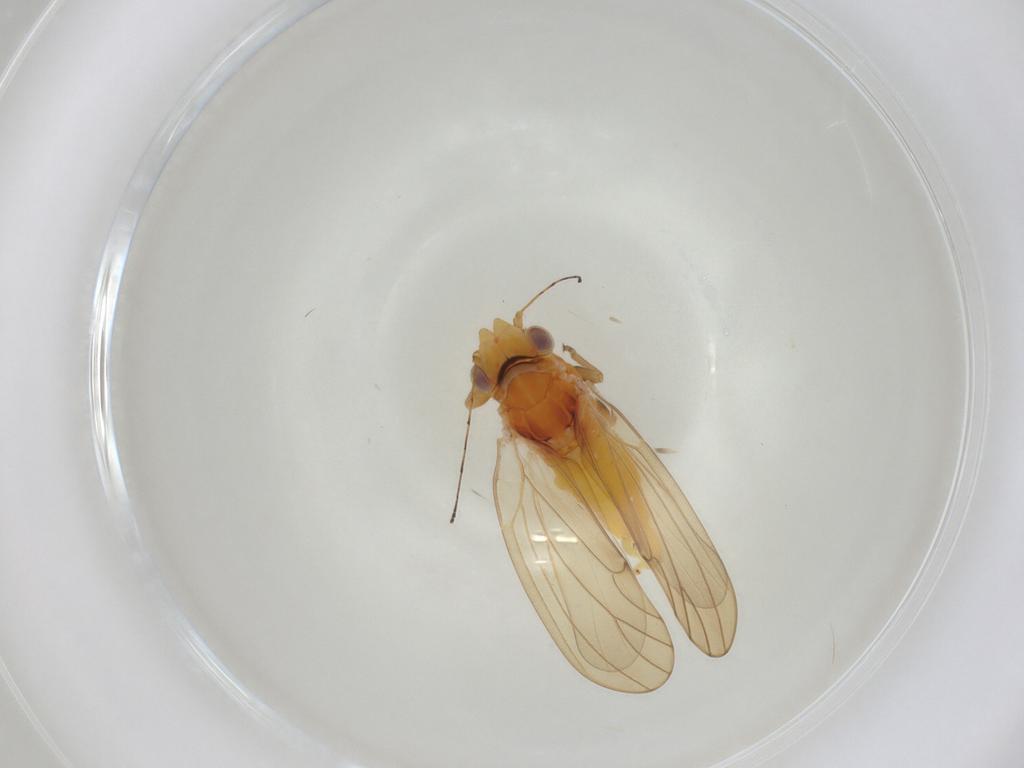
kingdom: Animalia
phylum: Arthropoda
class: Insecta
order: Hemiptera
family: Psylloidea_incertae_sedis
